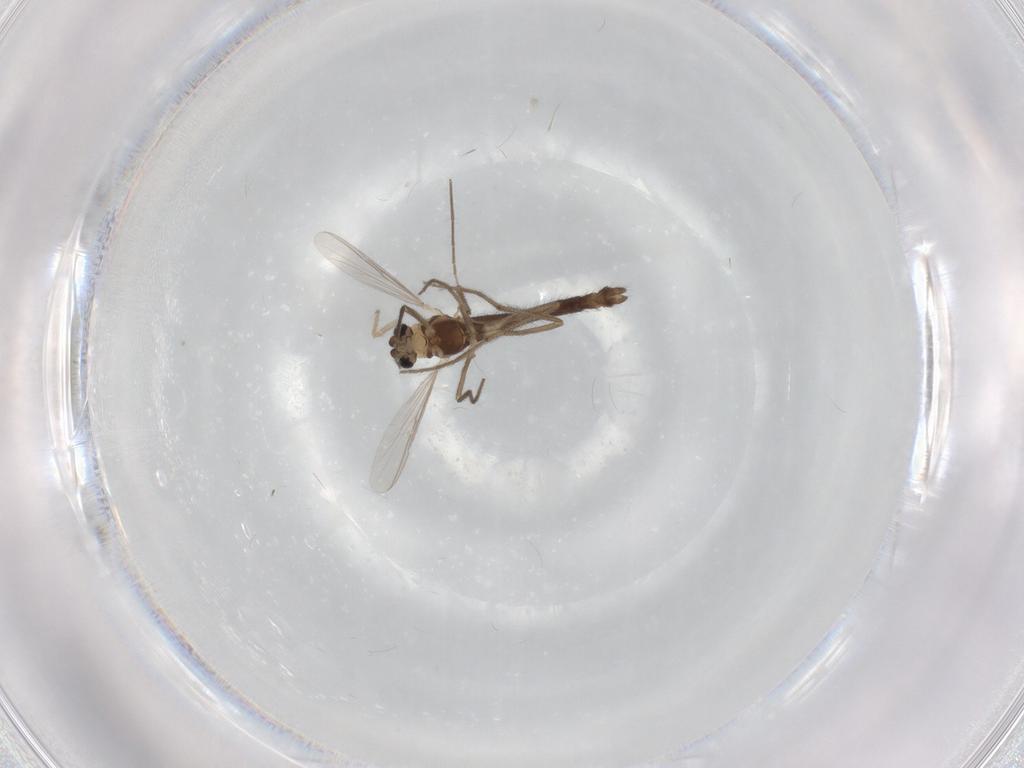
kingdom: Animalia
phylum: Arthropoda
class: Insecta
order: Diptera
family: Chironomidae
